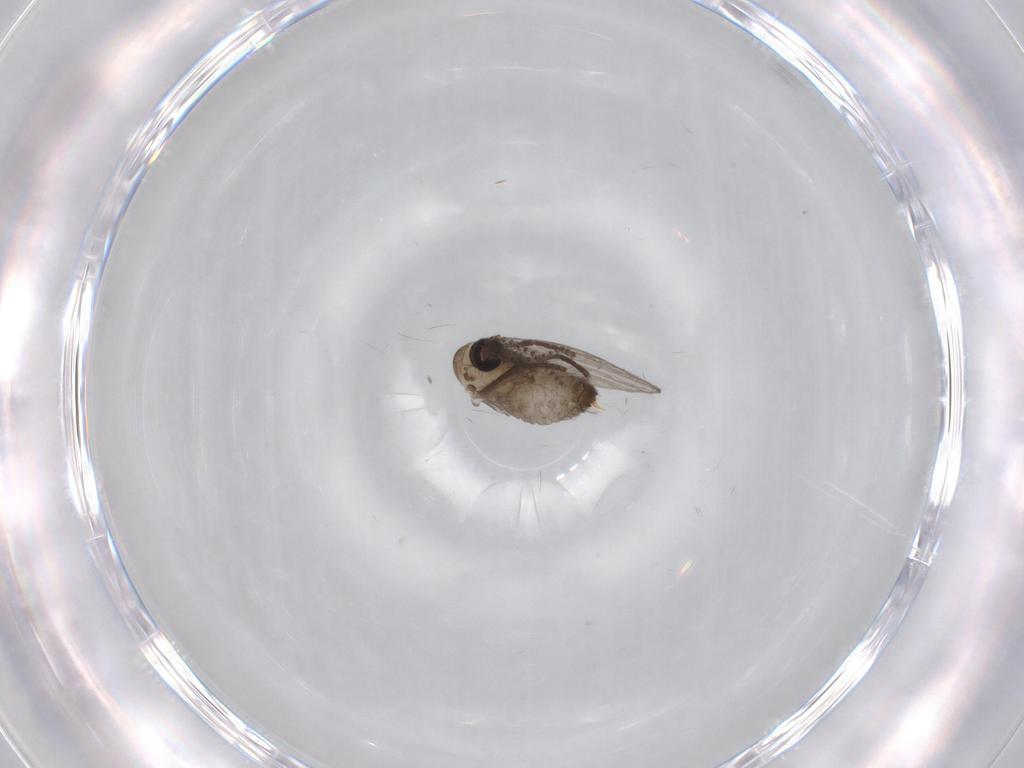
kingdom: Animalia
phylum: Arthropoda
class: Insecta
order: Diptera
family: Psychodidae
